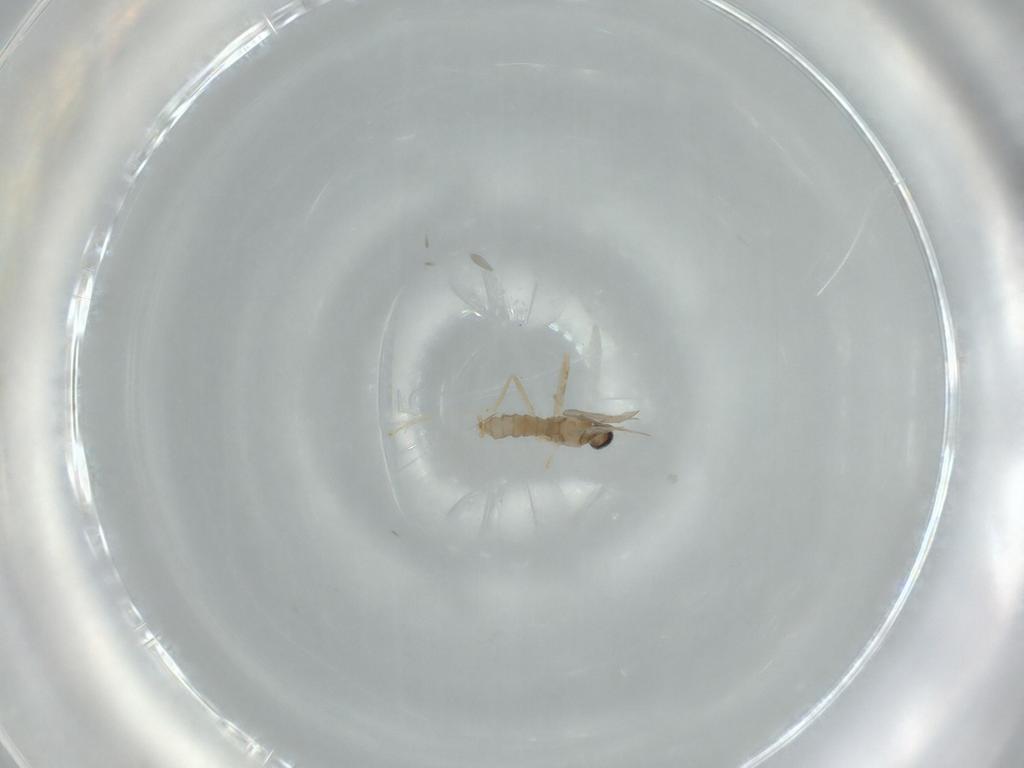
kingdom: Animalia
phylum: Arthropoda
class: Insecta
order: Diptera
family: Cecidomyiidae
